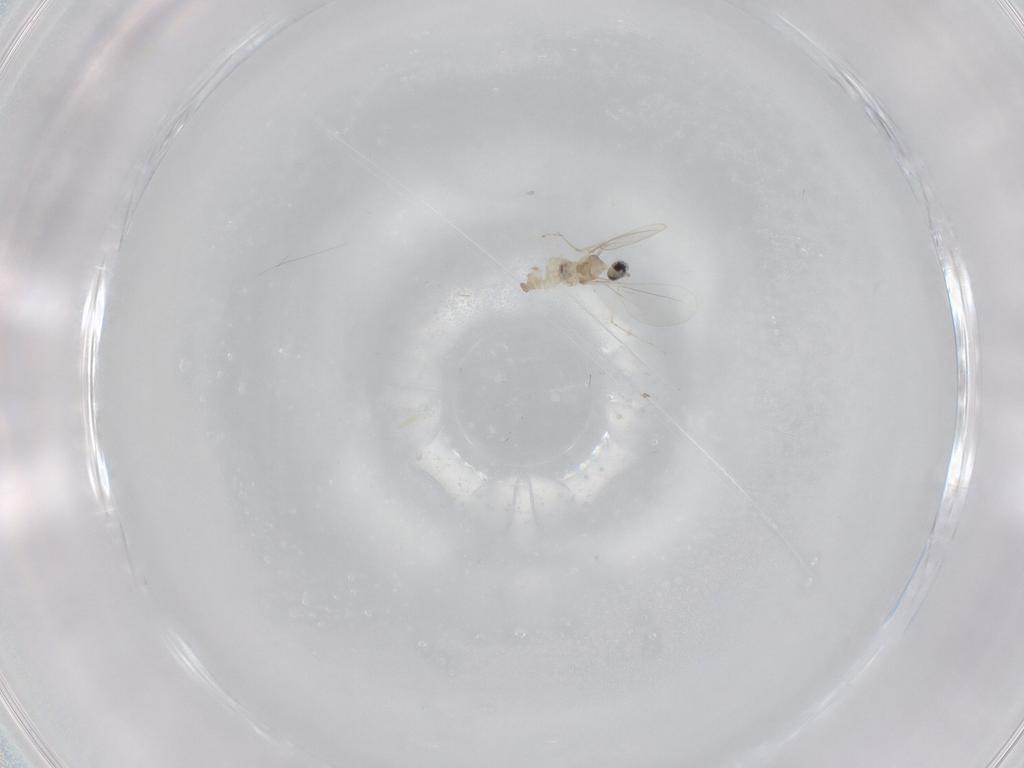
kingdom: Animalia
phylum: Arthropoda
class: Insecta
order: Diptera
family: Cecidomyiidae
